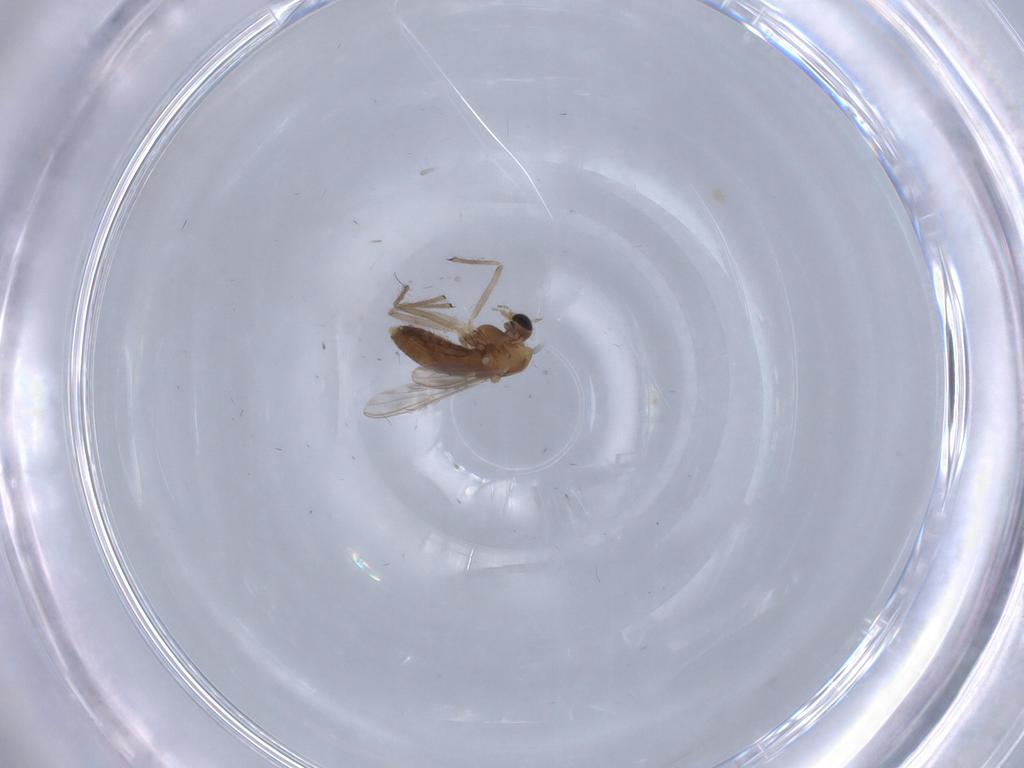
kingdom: Animalia
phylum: Arthropoda
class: Insecta
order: Diptera
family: Chironomidae
